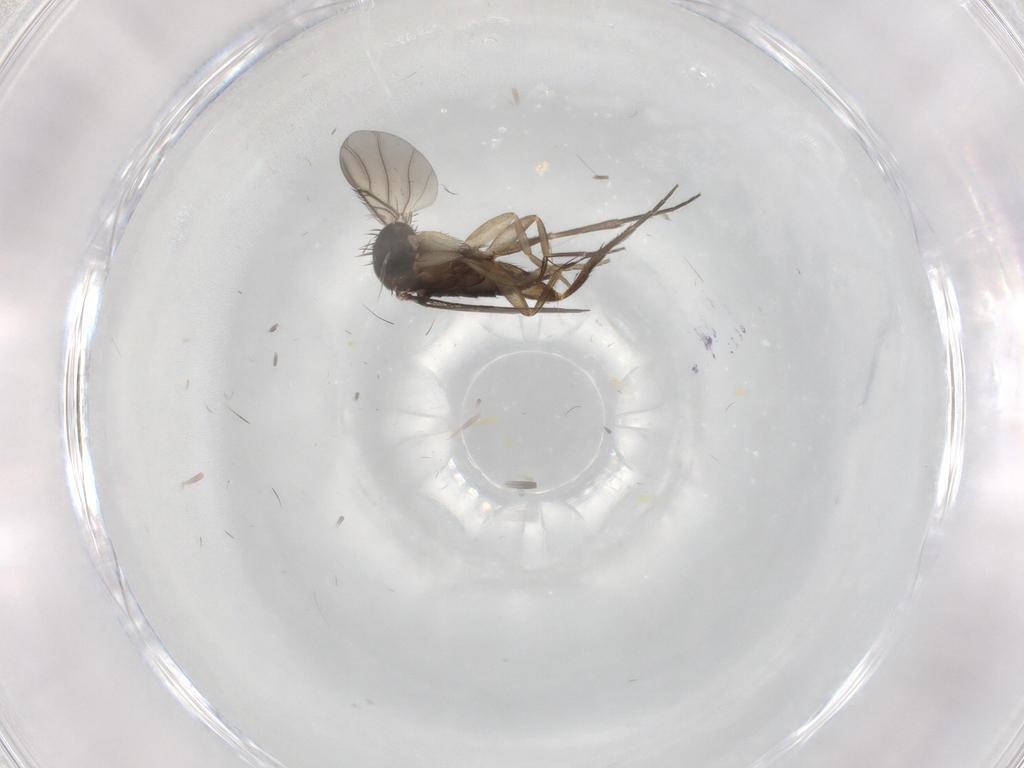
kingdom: Animalia
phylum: Arthropoda
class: Insecta
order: Diptera
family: Phoridae
